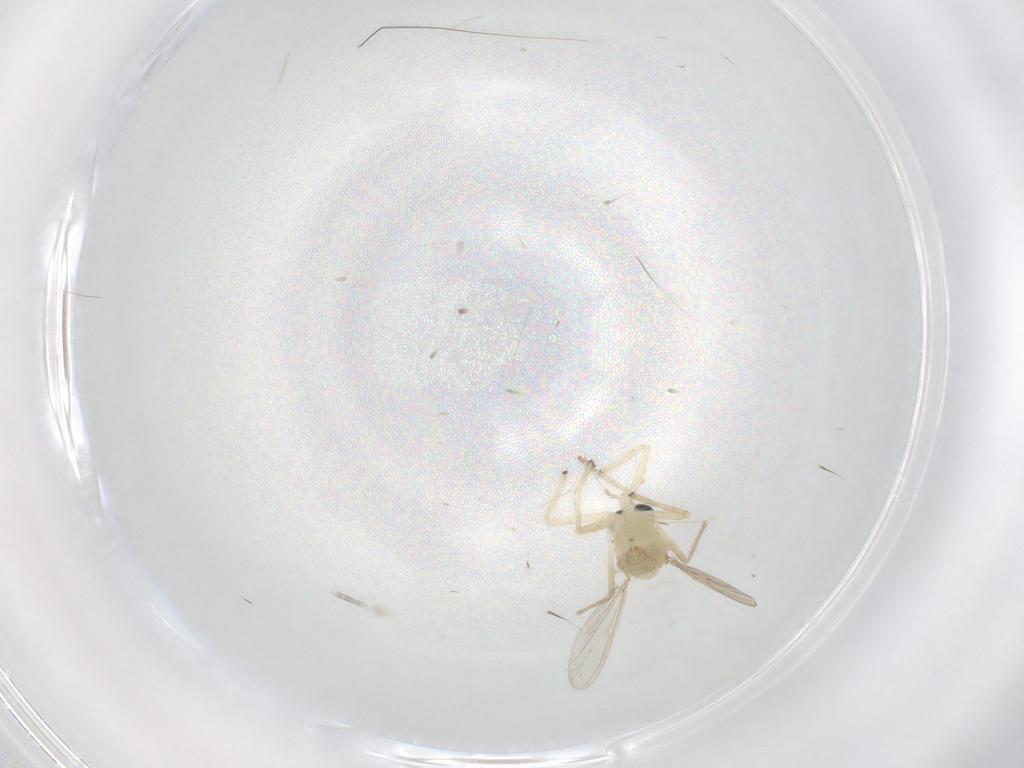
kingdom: Animalia
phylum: Arthropoda
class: Insecta
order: Diptera
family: Chironomidae
